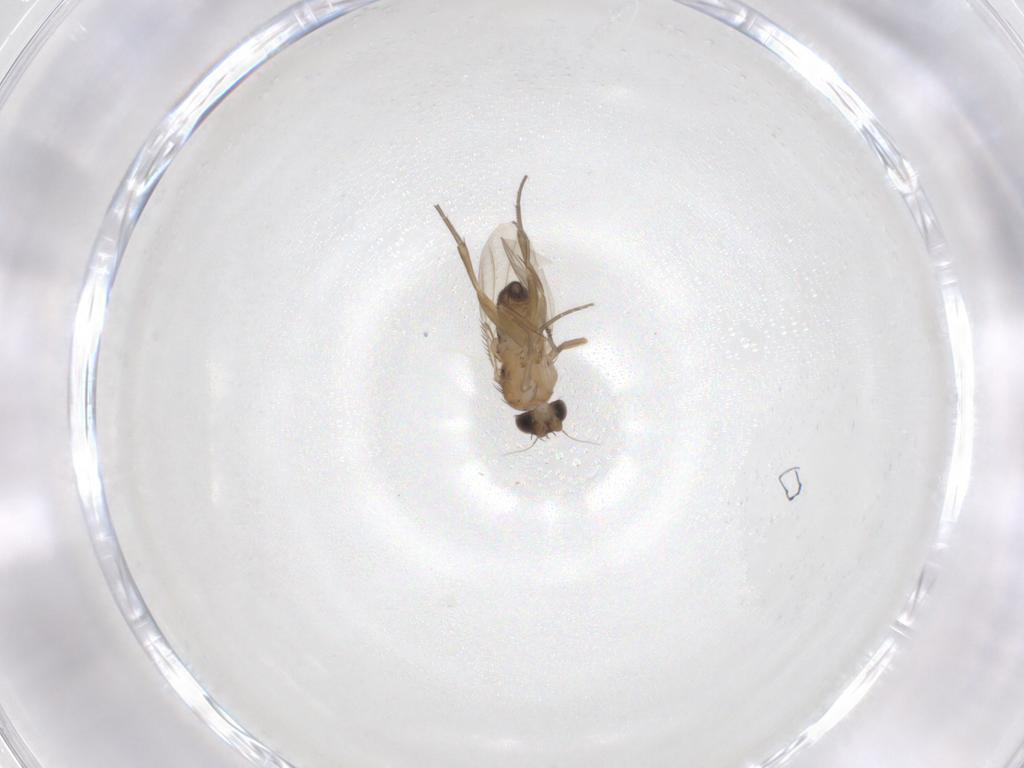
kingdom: Animalia
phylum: Arthropoda
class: Insecta
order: Diptera
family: Phoridae
